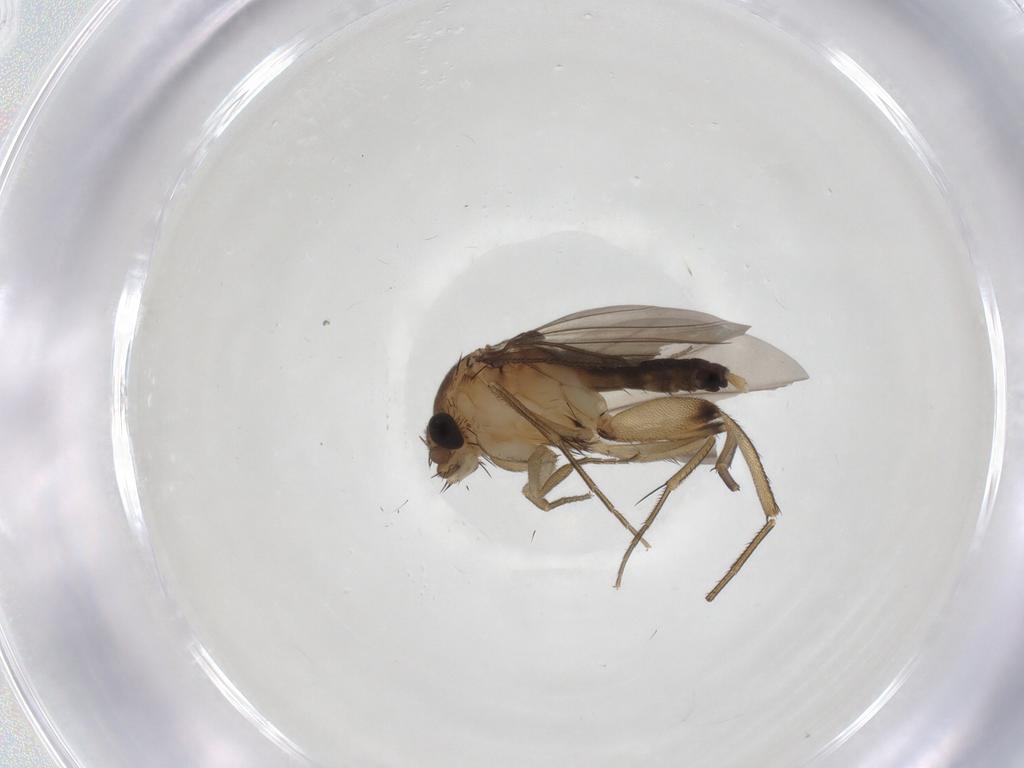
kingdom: Animalia
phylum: Arthropoda
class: Insecta
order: Diptera
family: Phoridae
